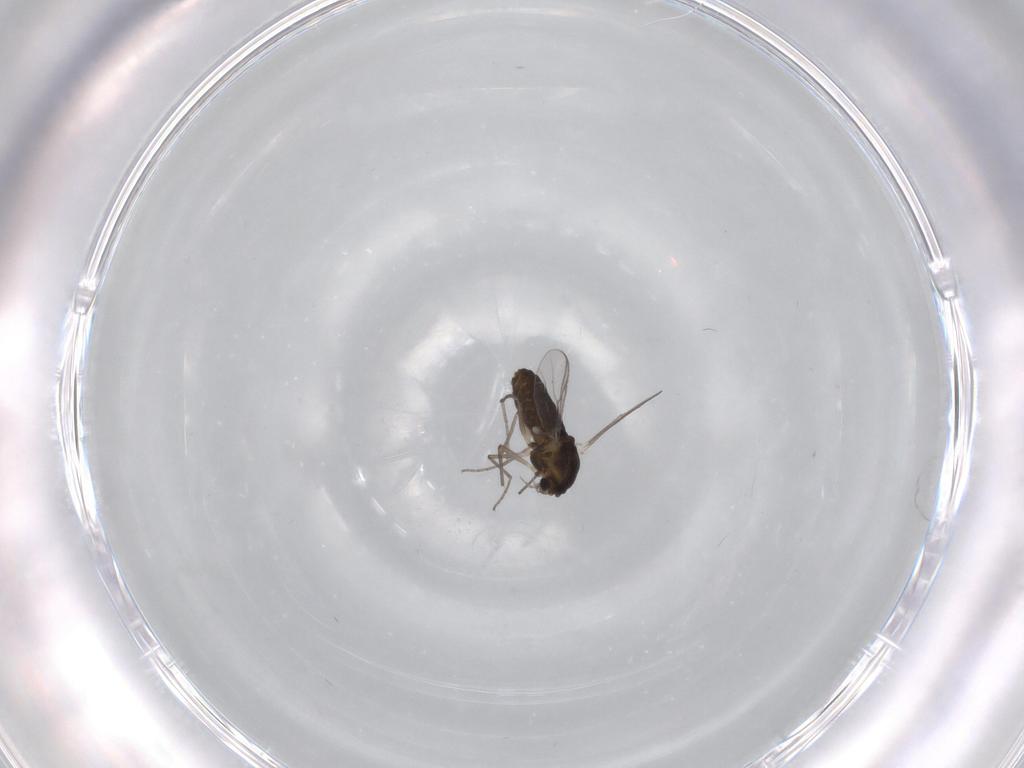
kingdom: Animalia
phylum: Arthropoda
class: Insecta
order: Diptera
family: Chironomidae
